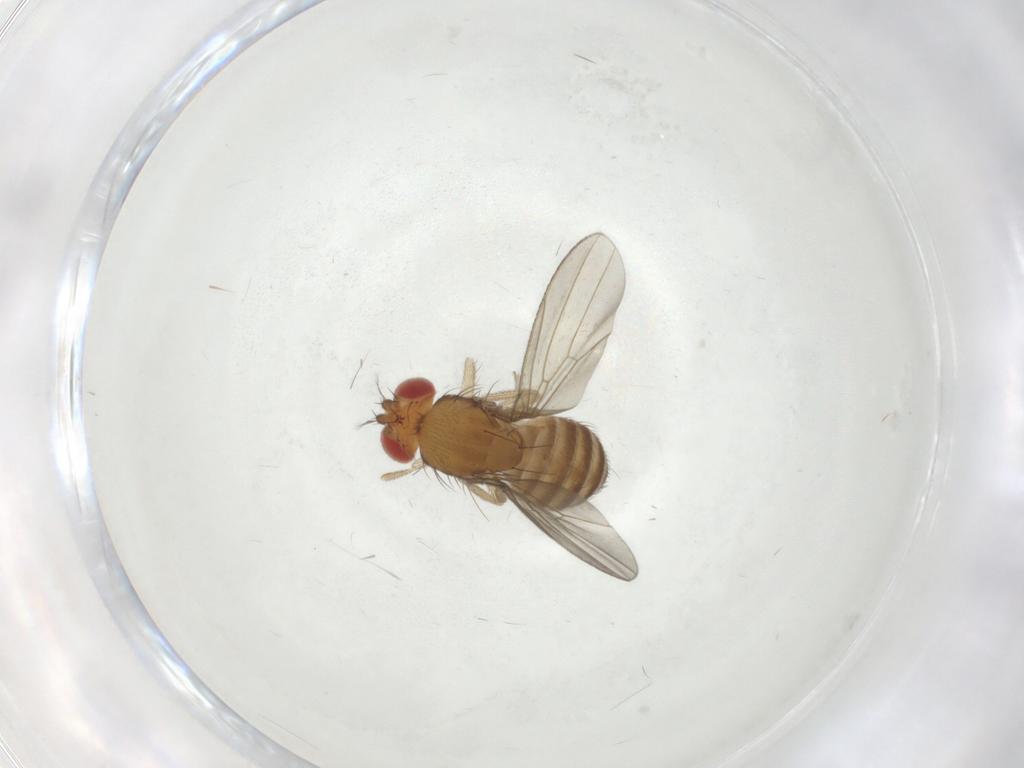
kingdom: Animalia
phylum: Arthropoda
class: Insecta
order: Diptera
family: Drosophilidae
